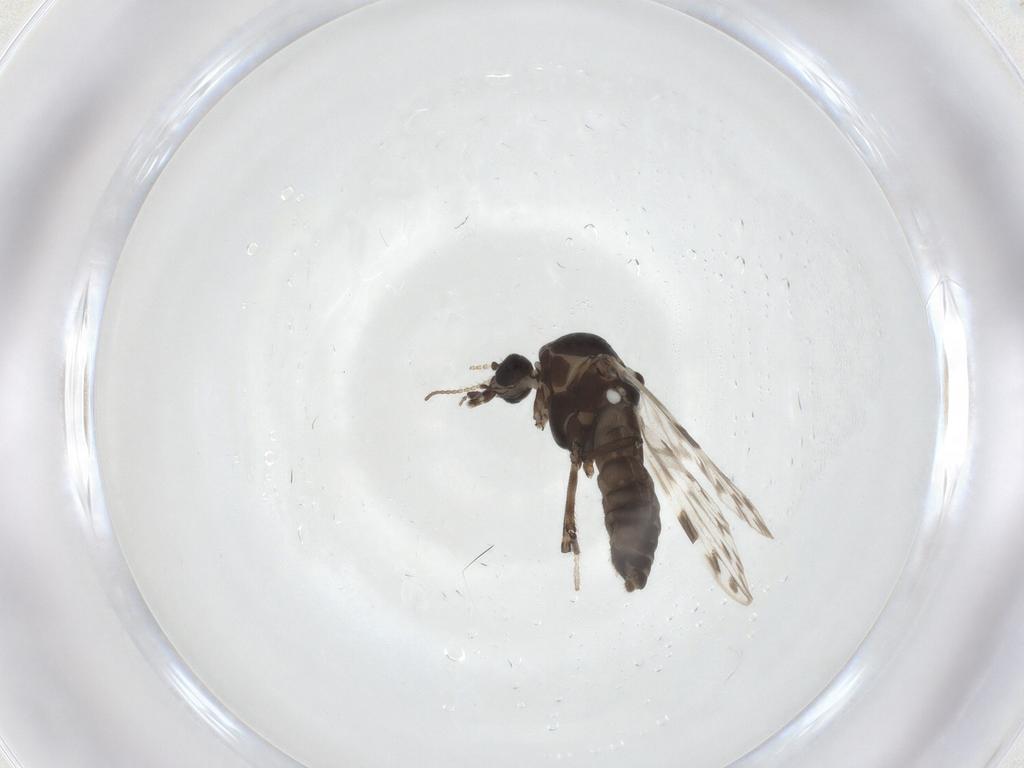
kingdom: Animalia
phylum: Arthropoda
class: Insecta
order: Diptera
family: Ceratopogonidae
